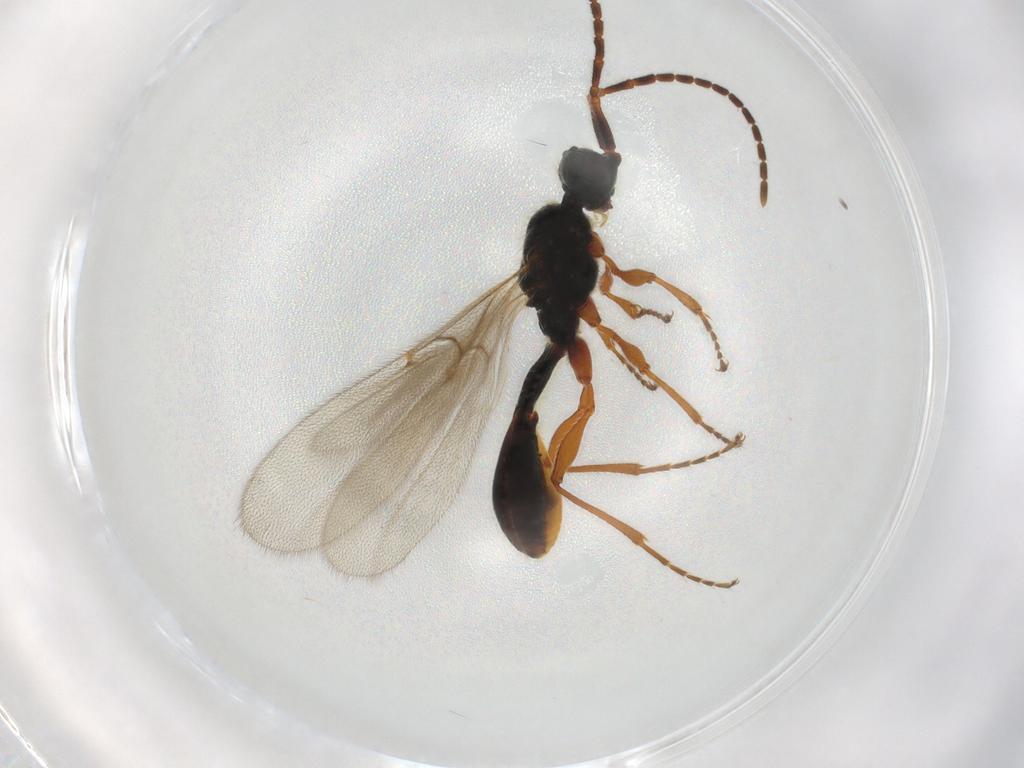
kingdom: Animalia
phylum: Arthropoda
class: Insecta
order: Hymenoptera
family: Diapriidae
